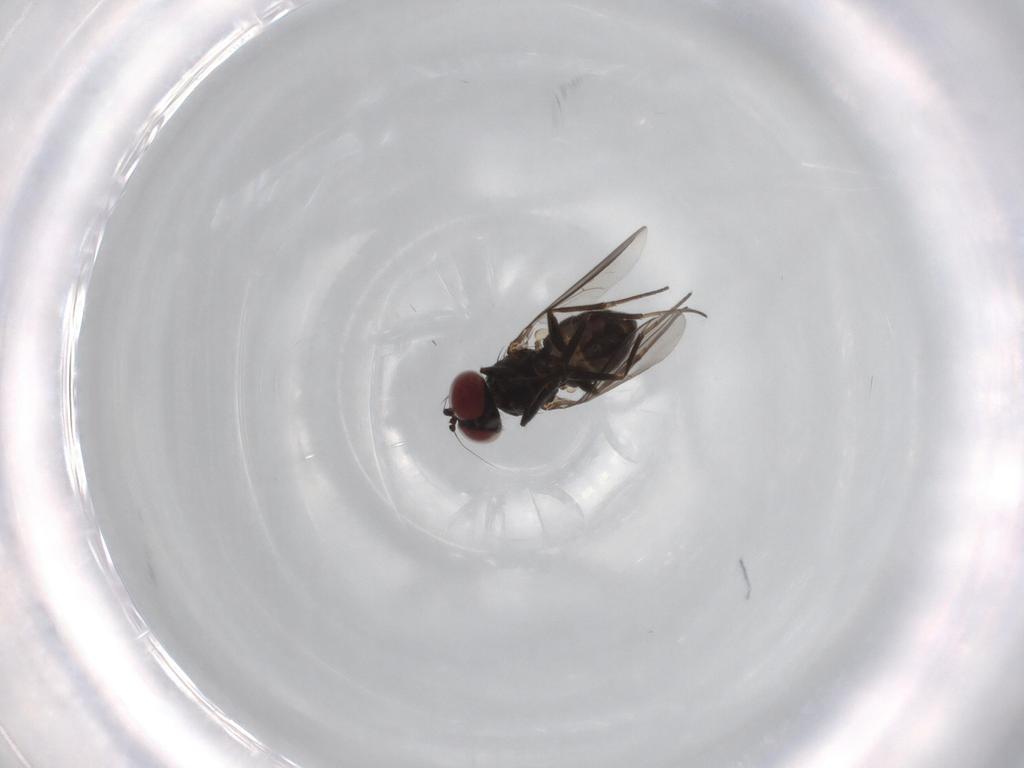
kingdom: Animalia
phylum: Arthropoda
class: Insecta
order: Diptera
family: Dolichopodidae
